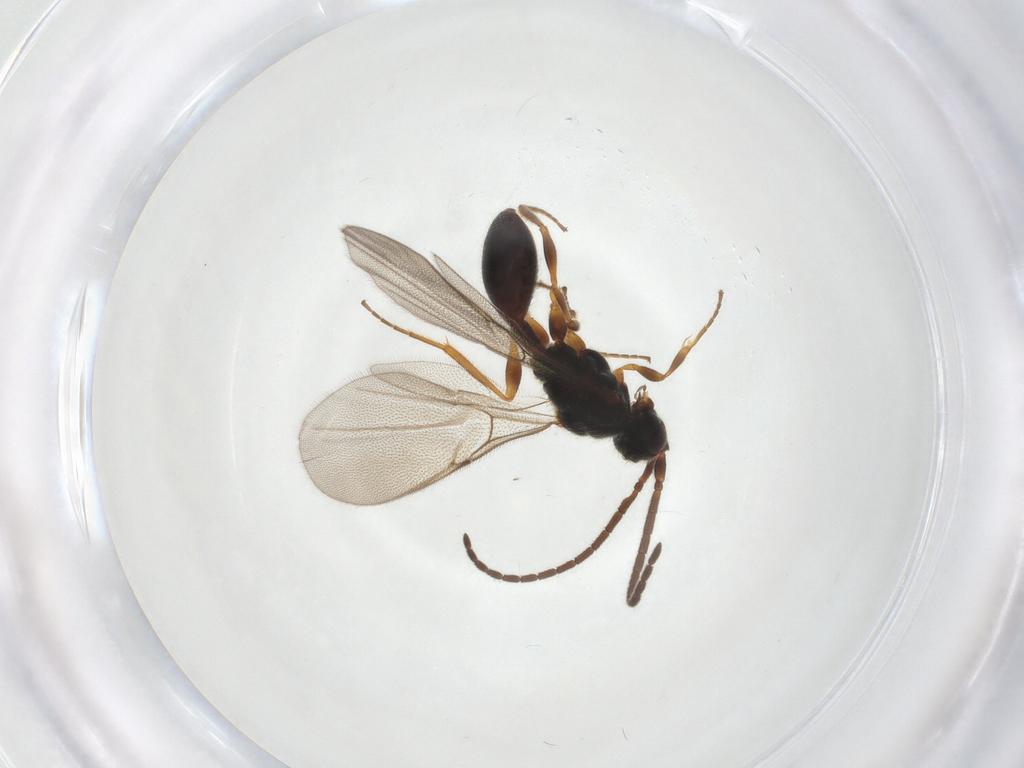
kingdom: Animalia
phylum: Arthropoda
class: Insecta
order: Hymenoptera
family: Diapriidae
